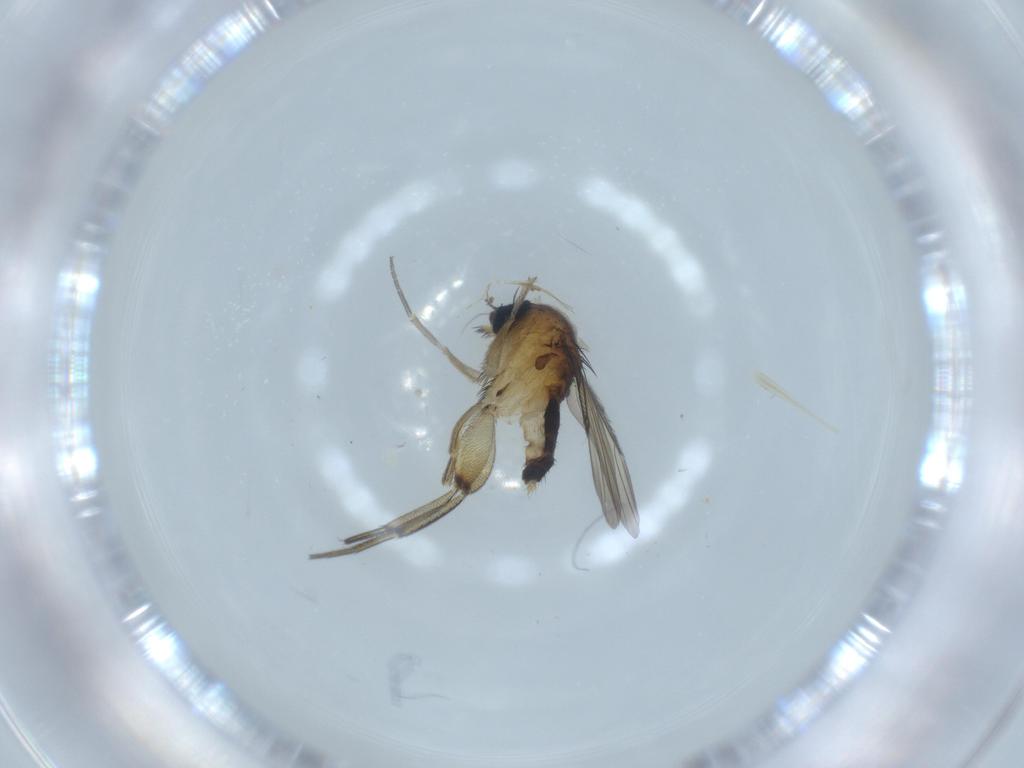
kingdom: Animalia
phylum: Arthropoda
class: Insecta
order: Diptera
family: Sciaridae
